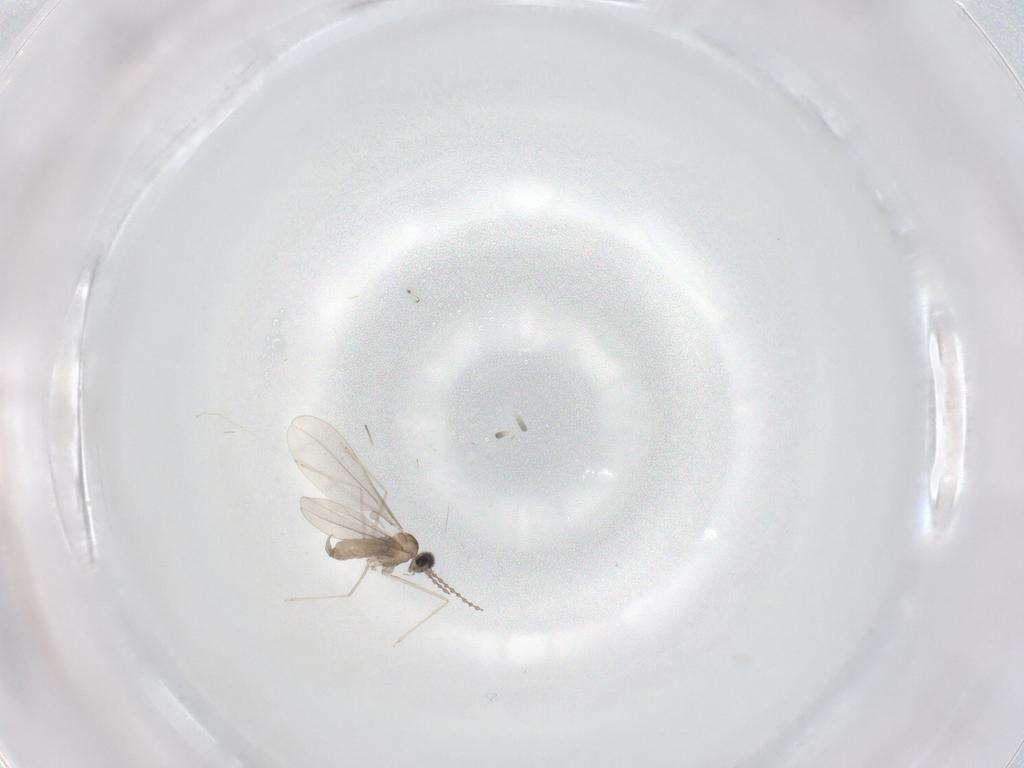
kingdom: Animalia
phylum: Arthropoda
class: Insecta
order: Diptera
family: Cecidomyiidae
